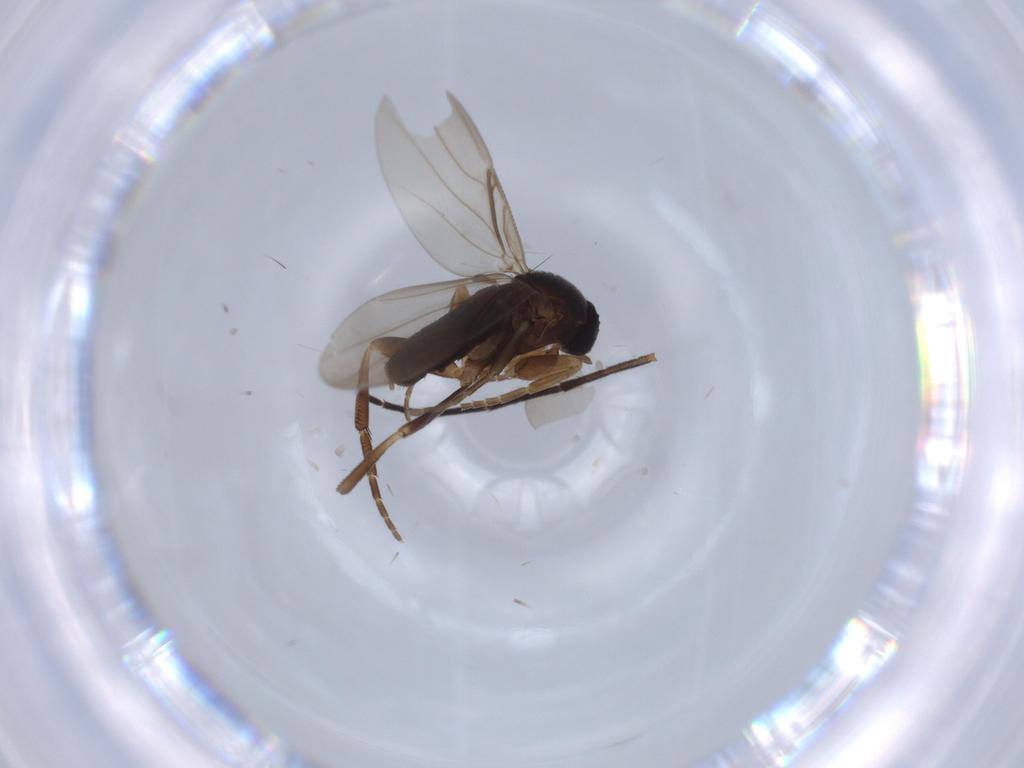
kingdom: Animalia
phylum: Arthropoda
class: Insecta
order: Diptera
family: Phoridae
